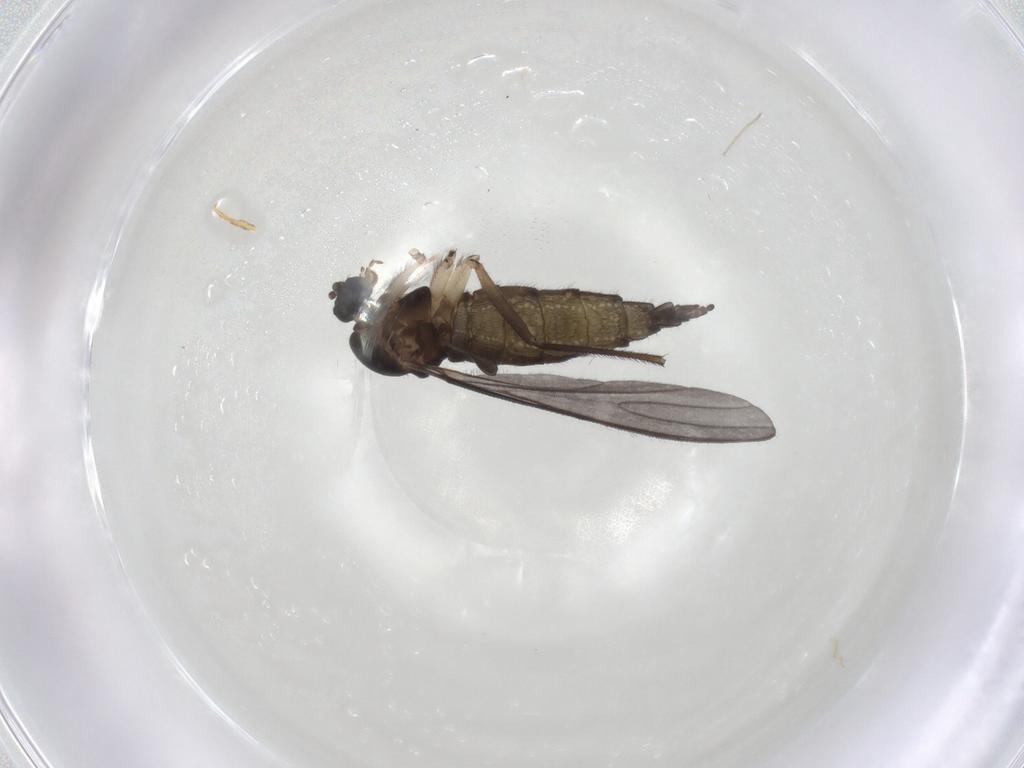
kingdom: Animalia
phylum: Arthropoda
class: Insecta
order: Diptera
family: Sciaridae
